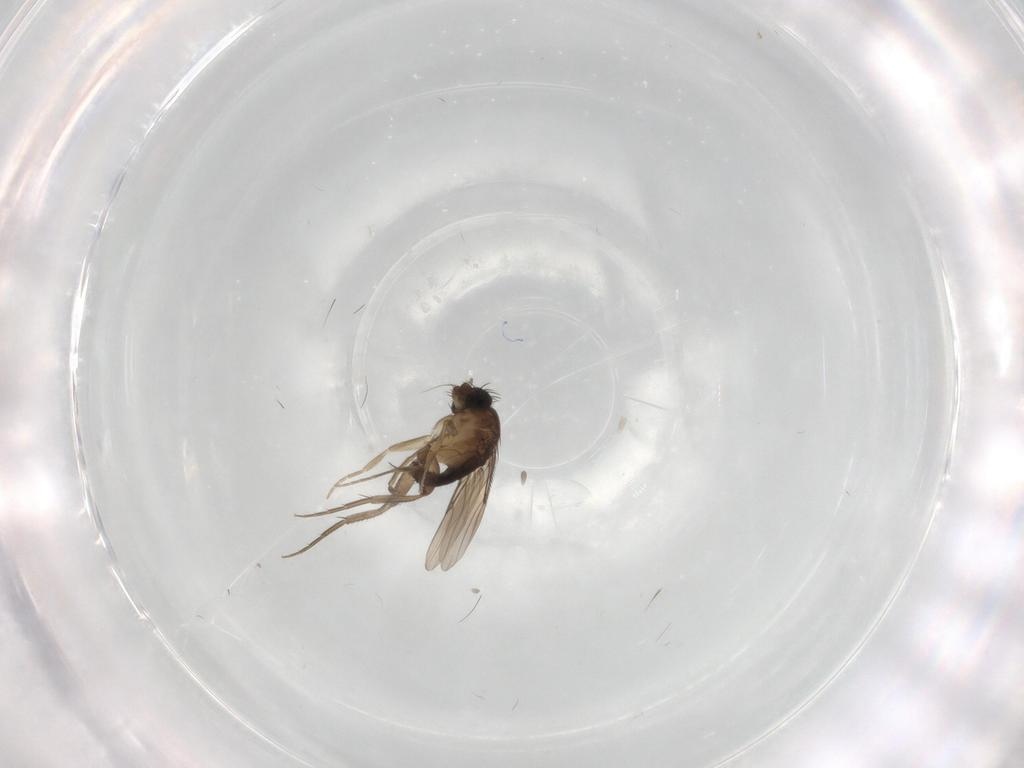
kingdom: Animalia
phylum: Arthropoda
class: Insecta
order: Diptera
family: Phoridae
